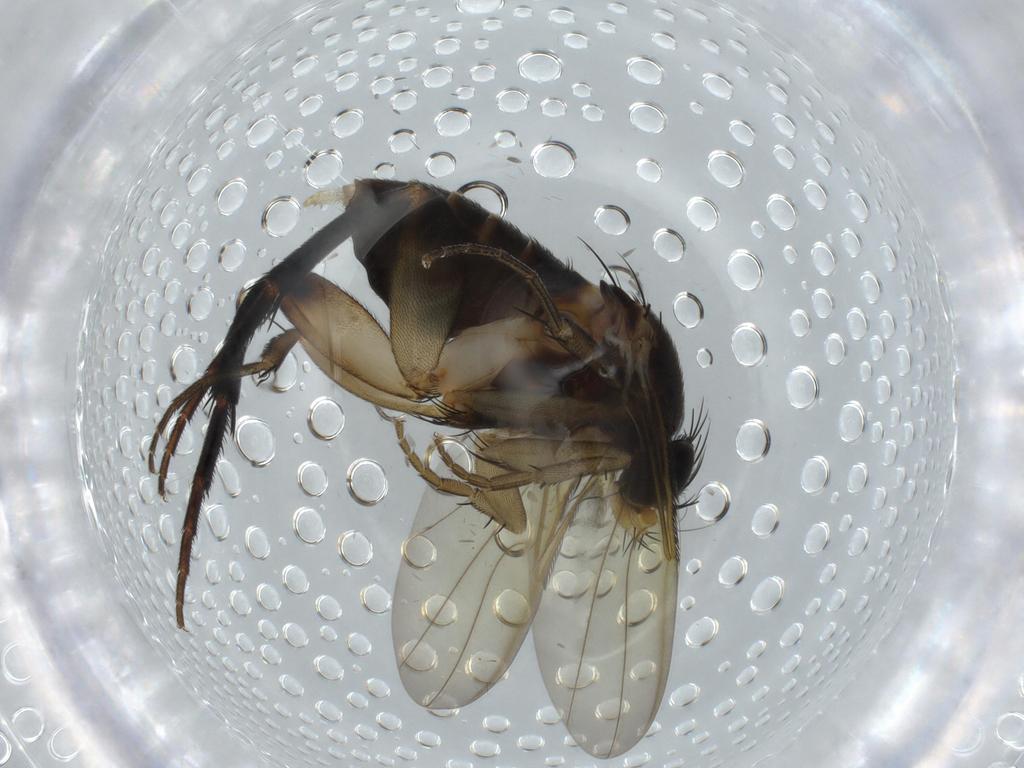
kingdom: Animalia
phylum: Arthropoda
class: Insecta
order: Diptera
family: Phoridae
